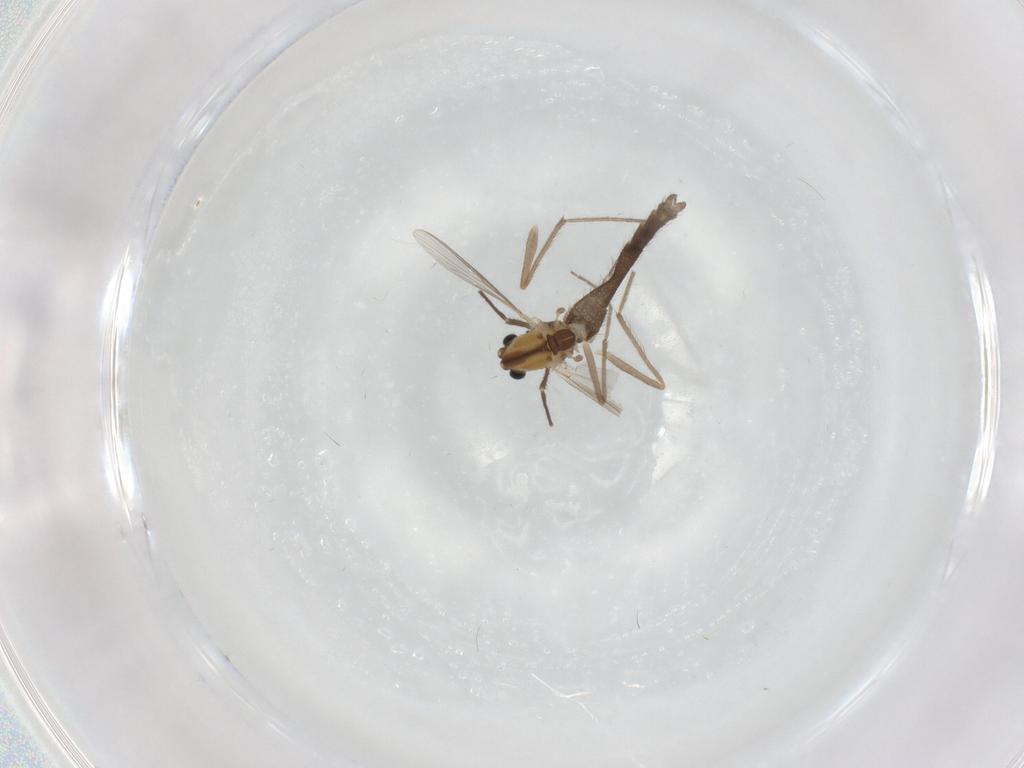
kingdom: Animalia
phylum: Arthropoda
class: Insecta
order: Diptera
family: Chironomidae
